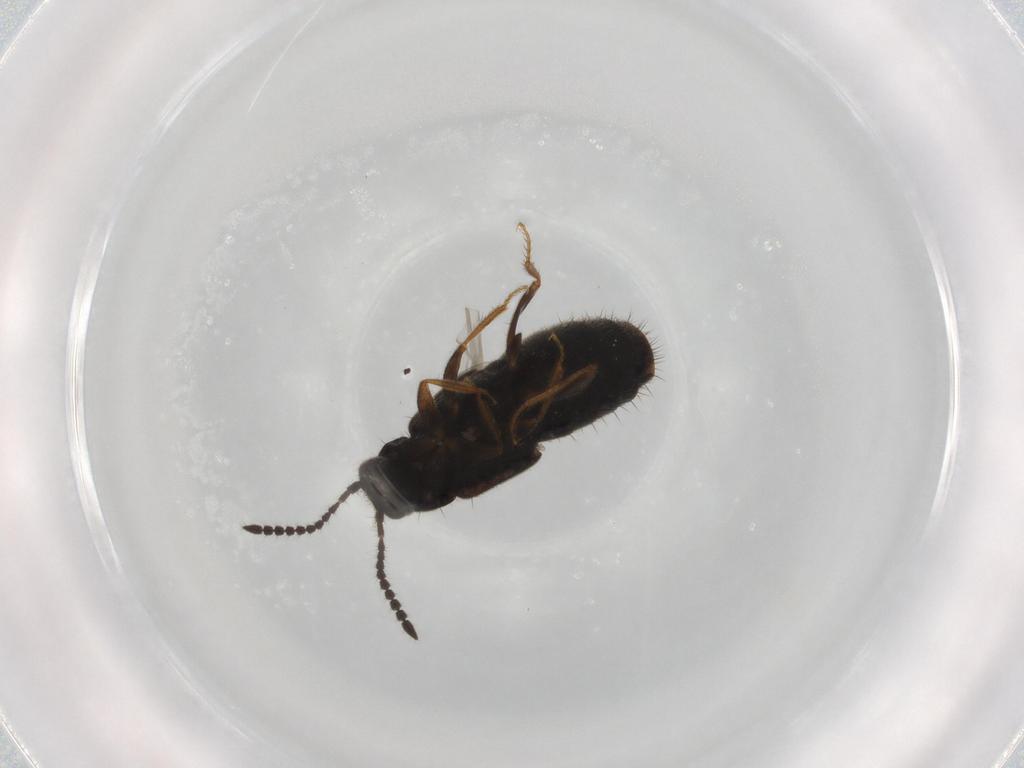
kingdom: Animalia
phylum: Arthropoda
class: Insecta
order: Coleoptera
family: Staphylinidae
